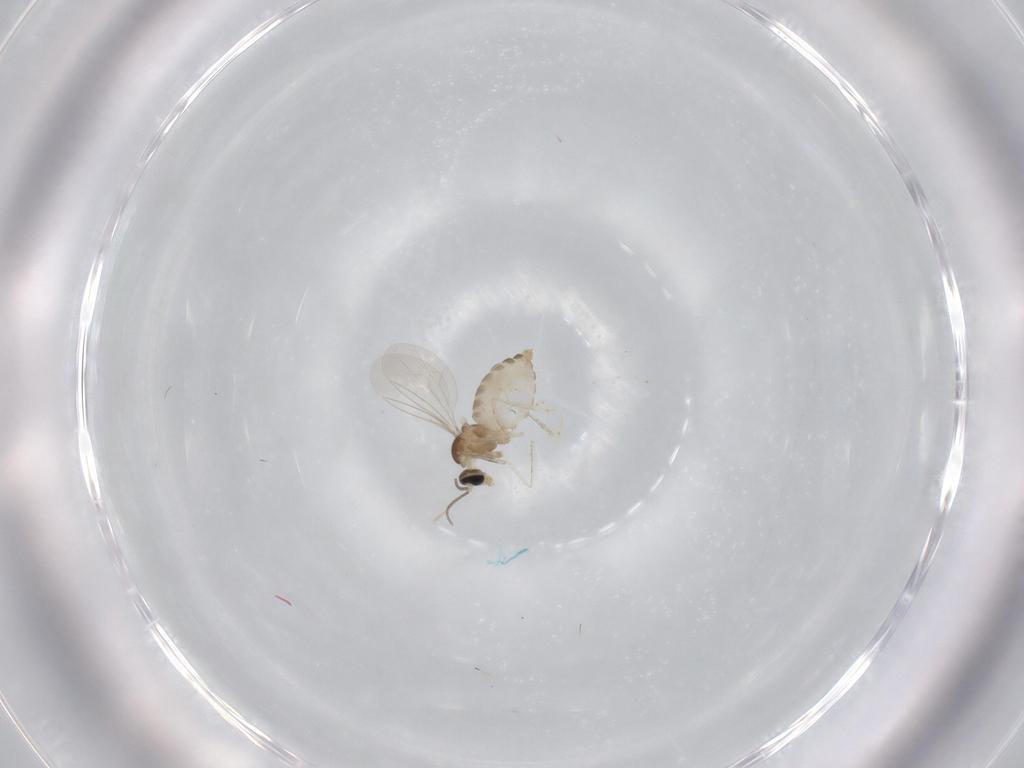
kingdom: Animalia
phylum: Arthropoda
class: Insecta
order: Diptera
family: Cecidomyiidae
